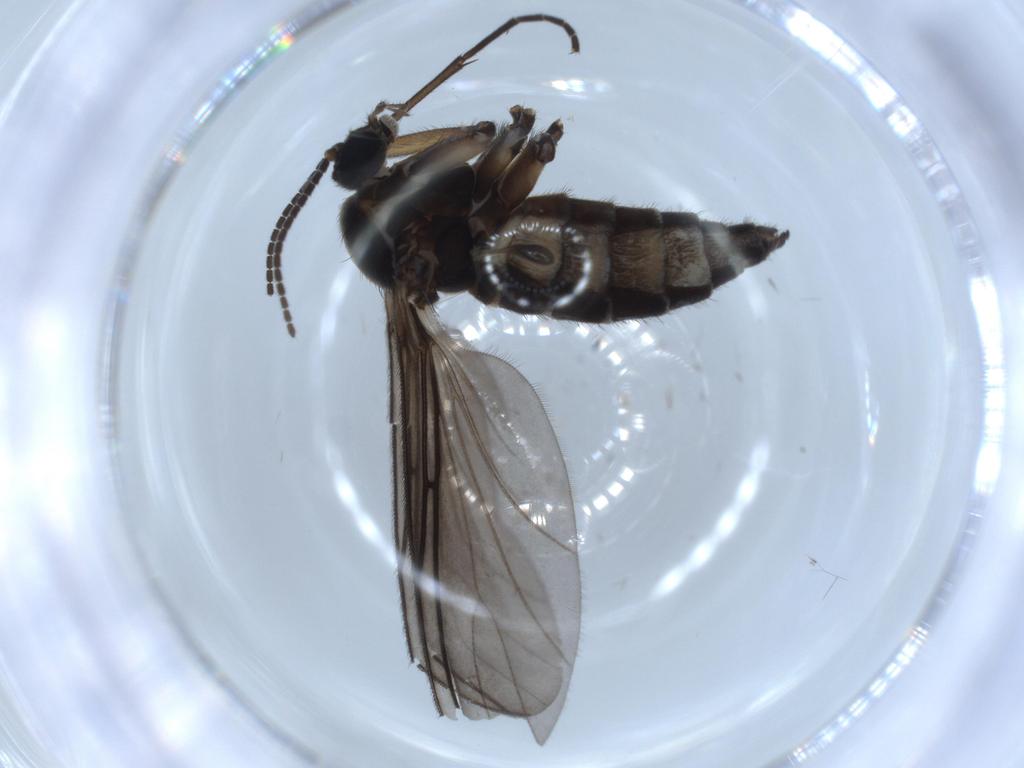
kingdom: Animalia
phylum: Arthropoda
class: Insecta
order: Diptera
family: Sciaridae
